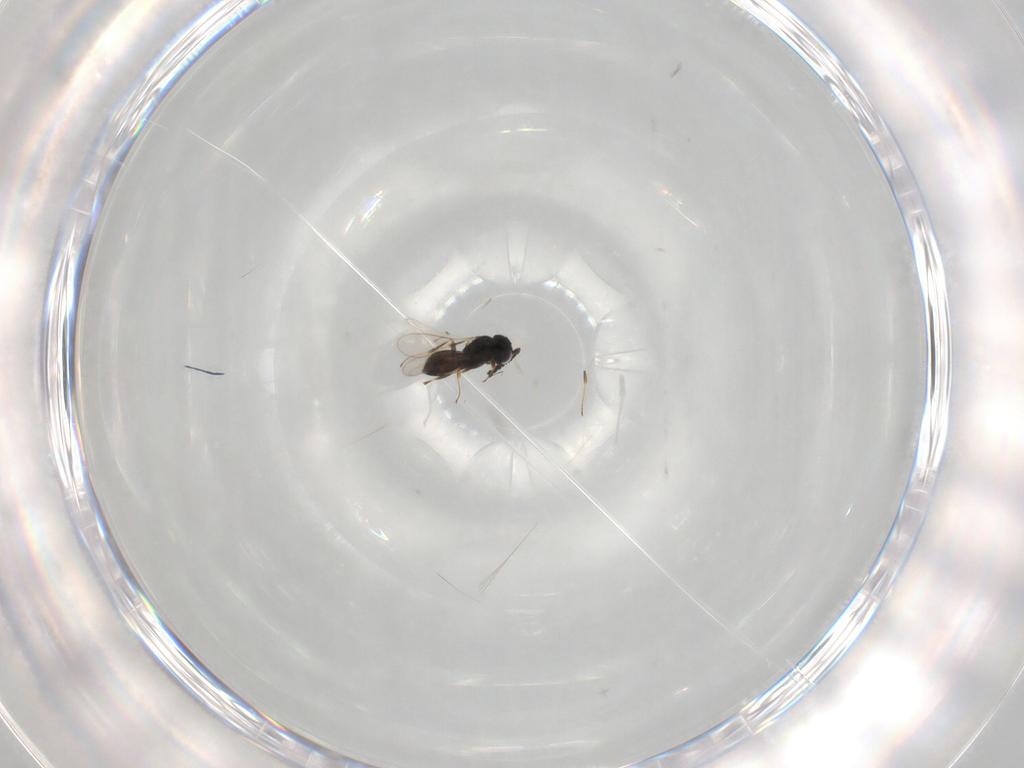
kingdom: Animalia
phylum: Arthropoda
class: Insecta
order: Hymenoptera
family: Scelionidae
